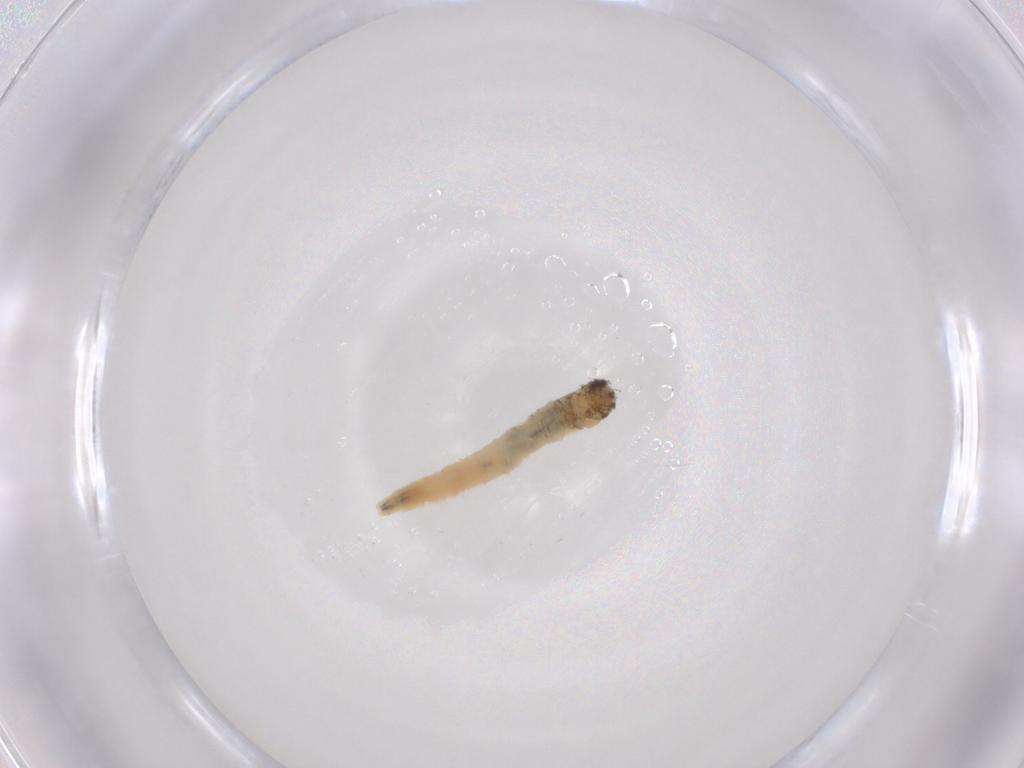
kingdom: Animalia
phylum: Arthropoda
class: Insecta
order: Diptera
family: Drosophilidae
